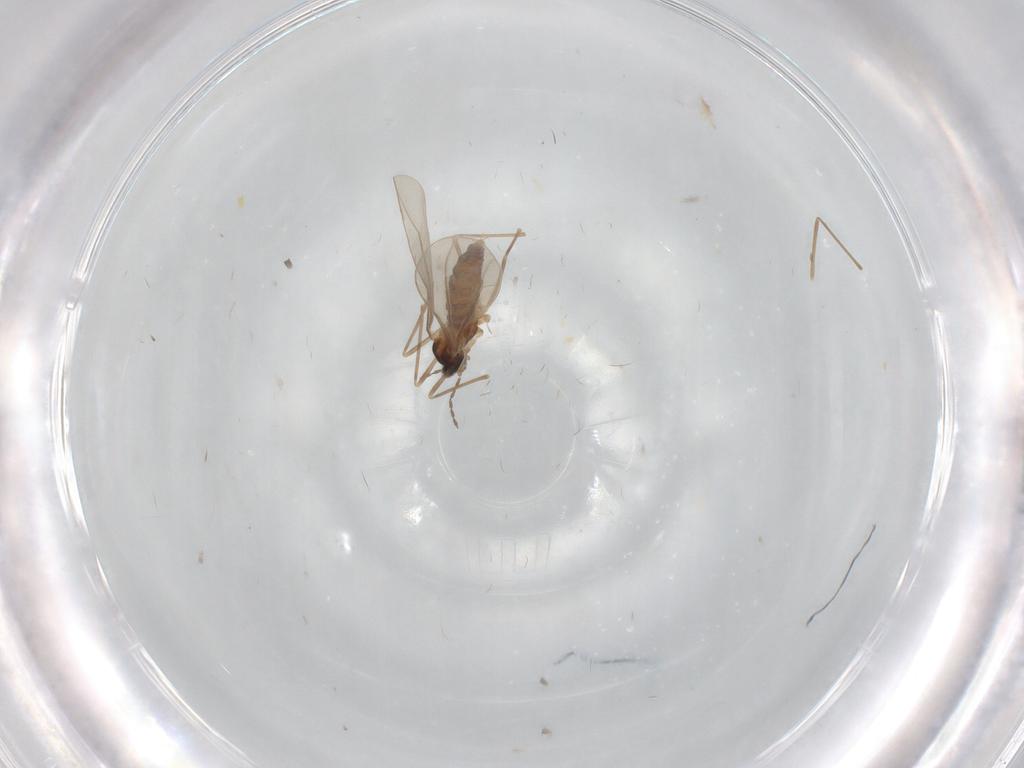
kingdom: Animalia
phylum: Arthropoda
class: Insecta
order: Diptera
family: Cecidomyiidae
